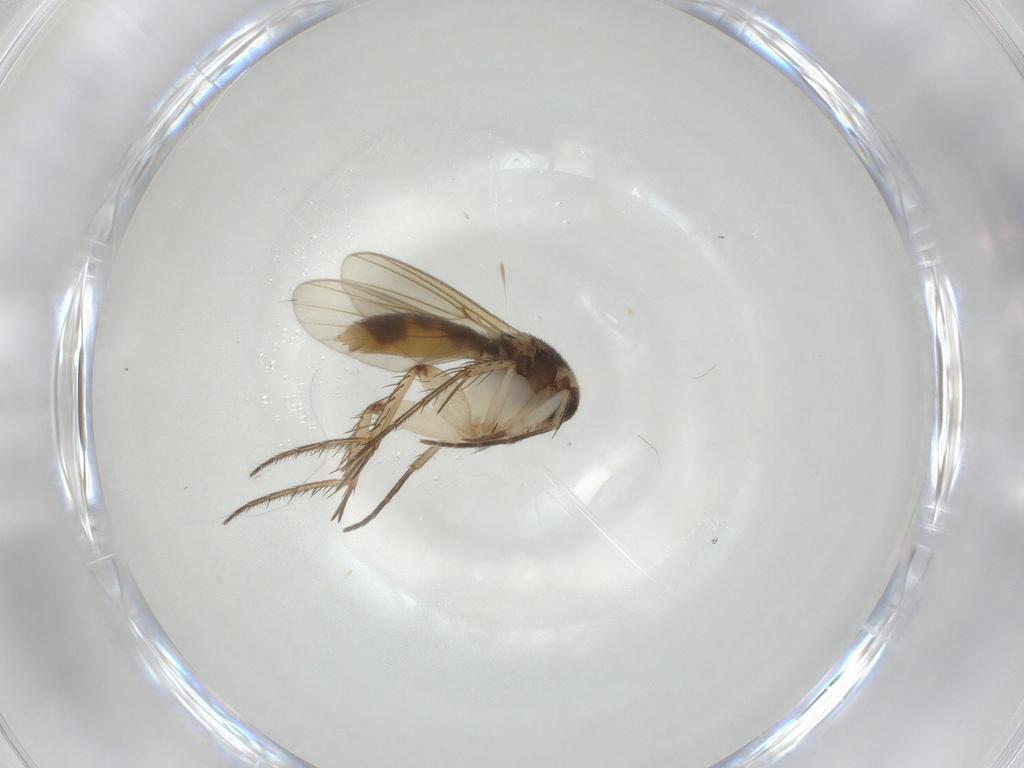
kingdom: Animalia
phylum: Arthropoda
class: Insecta
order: Diptera
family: Mycetophilidae
